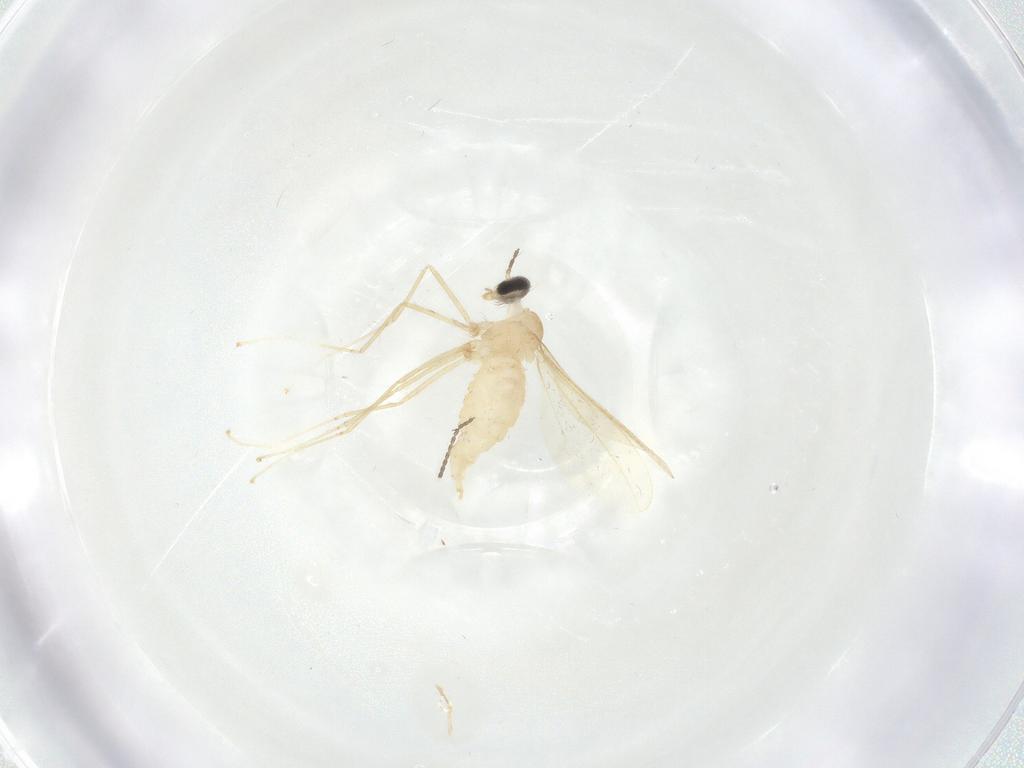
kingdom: Animalia
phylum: Arthropoda
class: Insecta
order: Diptera
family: Cecidomyiidae
